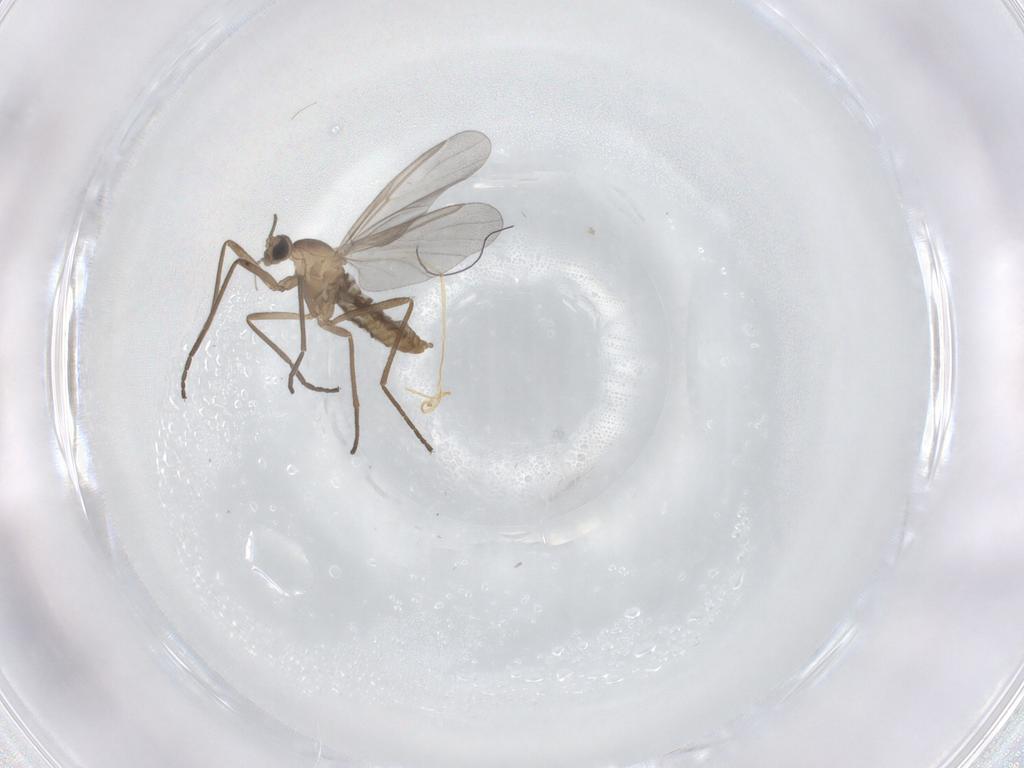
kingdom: Animalia
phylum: Arthropoda
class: Insecta
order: Diptera
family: Cecidomyiidae
